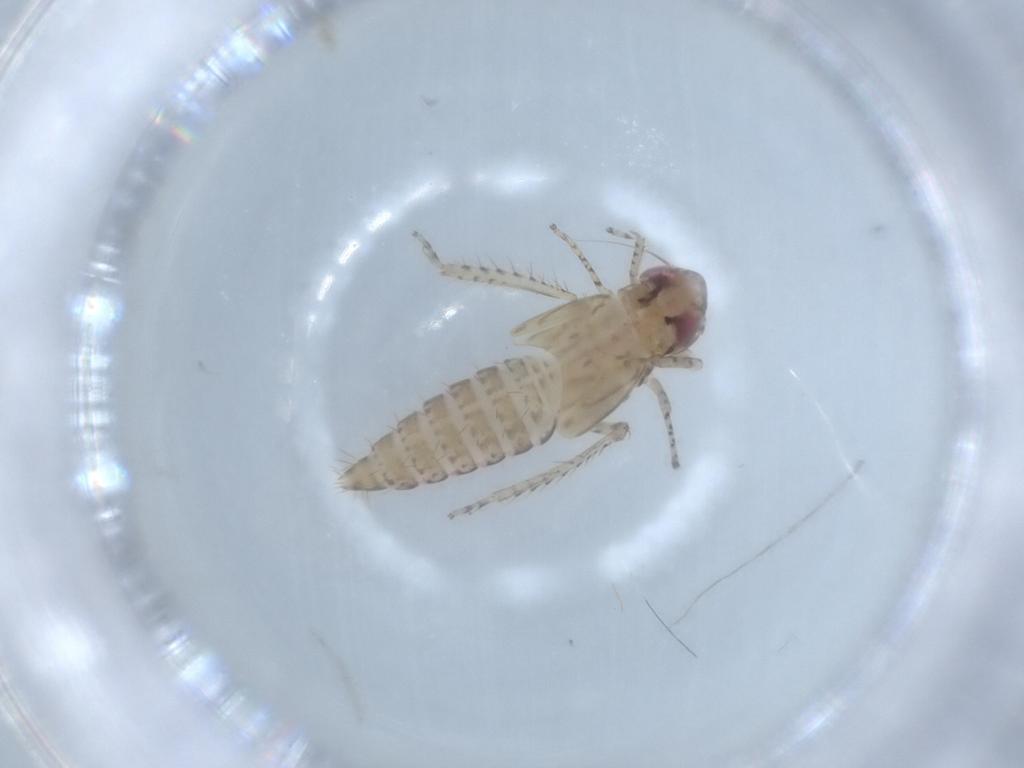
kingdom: Animalia
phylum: Arthropoda
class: Insecta
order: Hemiptera
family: Cicadellidae
